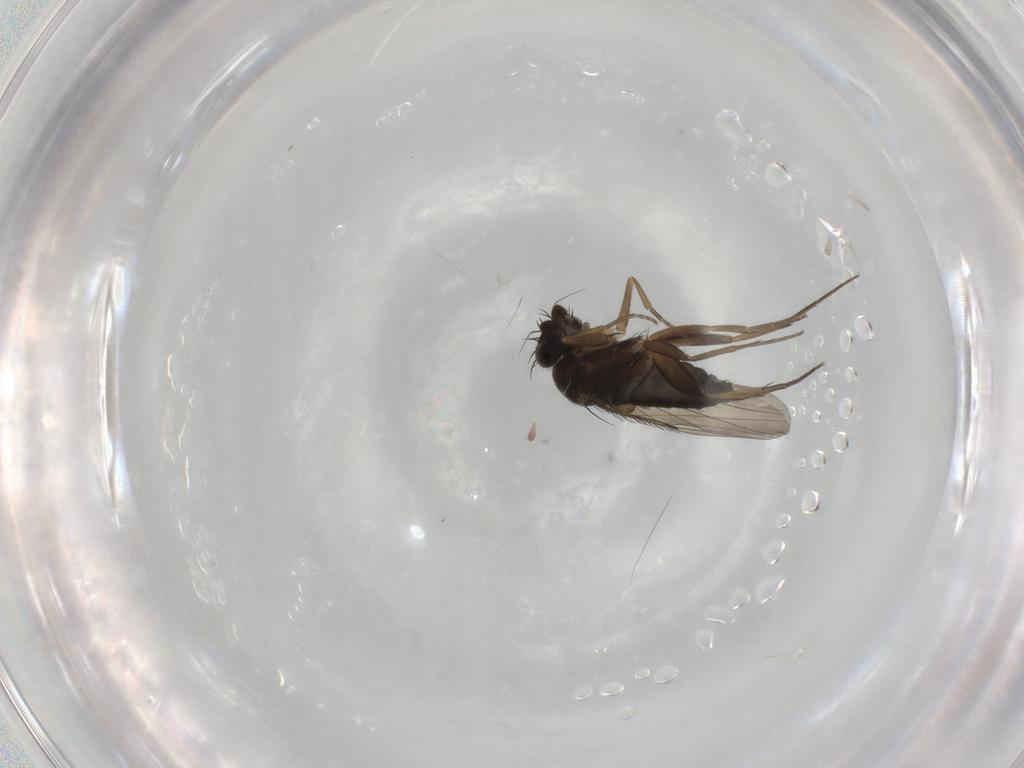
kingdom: Animalia
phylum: Arthropoda
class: Insecta
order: Diptera
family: Phoridae
